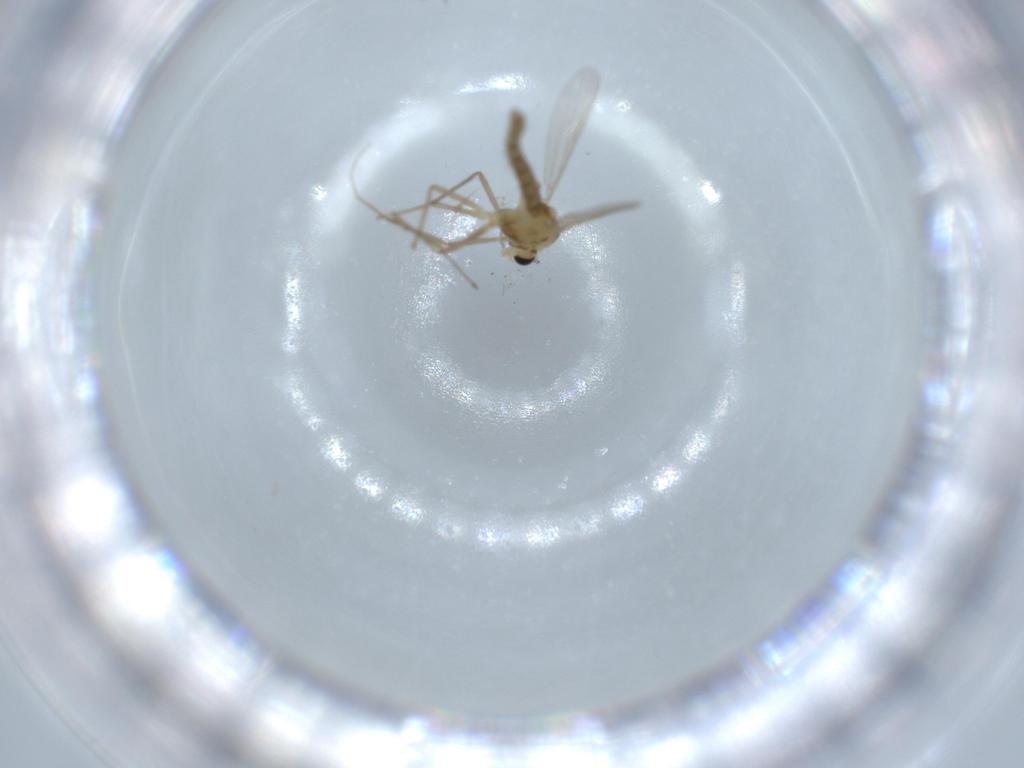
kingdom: Animalia
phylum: Arthropoda
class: Insecta
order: Diptera
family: Chironomidae
